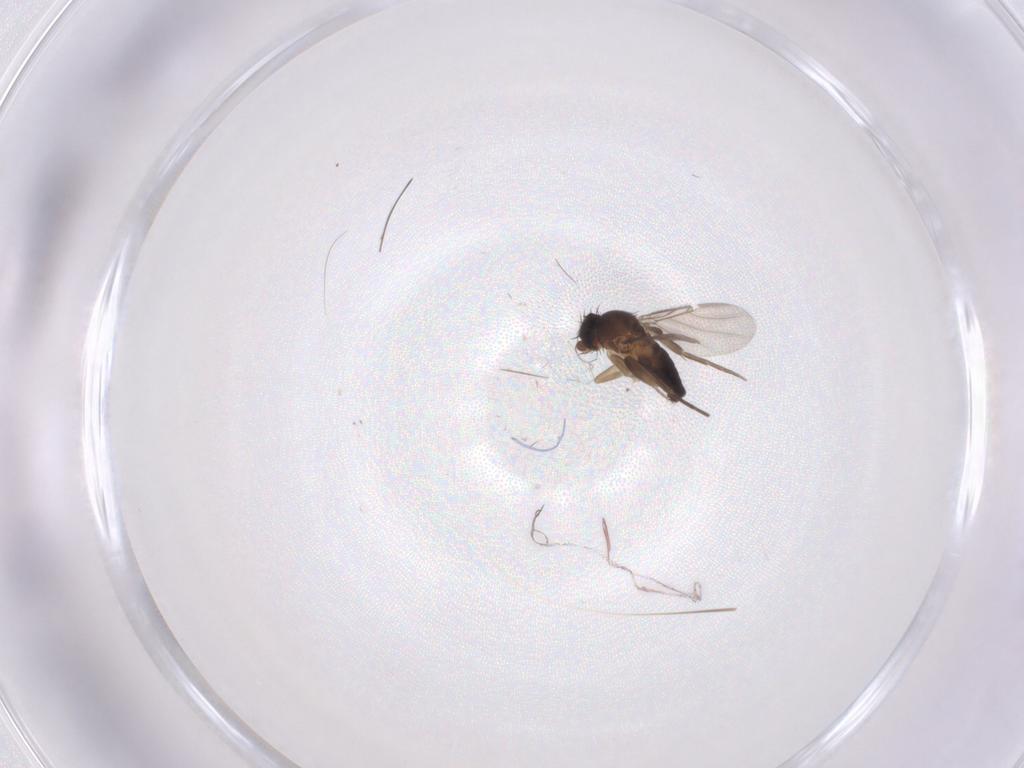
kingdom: Animalia
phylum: Arthropoda
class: Insecta
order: Diptera
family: Phoridae
